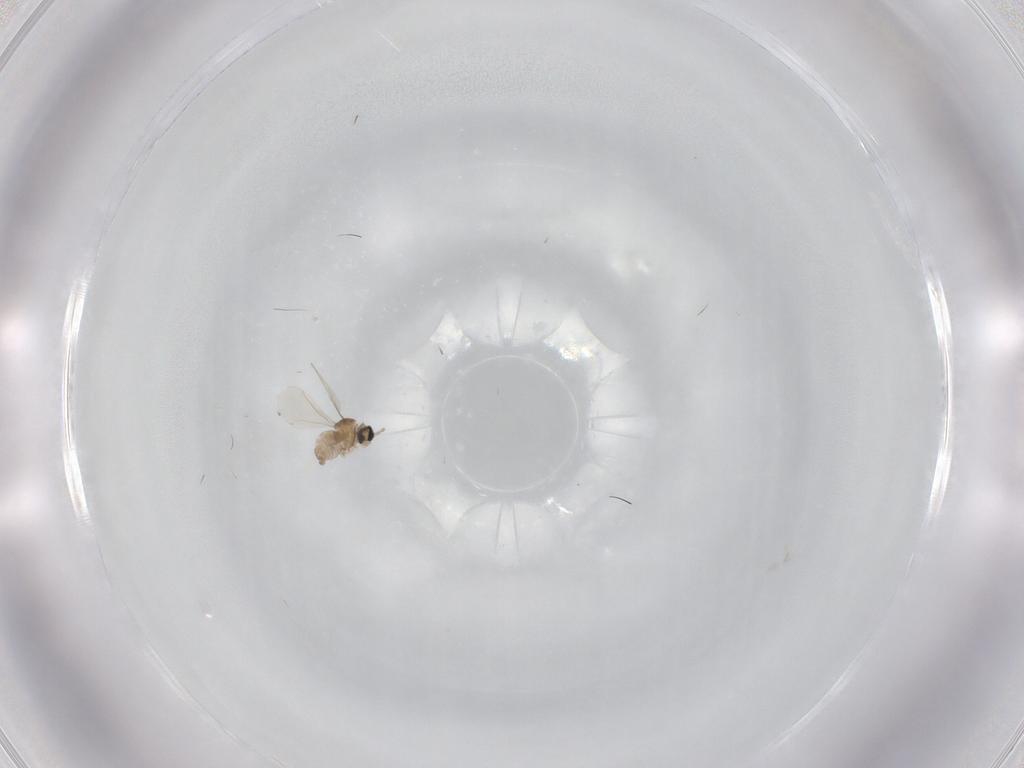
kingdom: Animalia
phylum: Arthropoda
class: Insecta
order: Diptera
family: Cecidomyiidae
